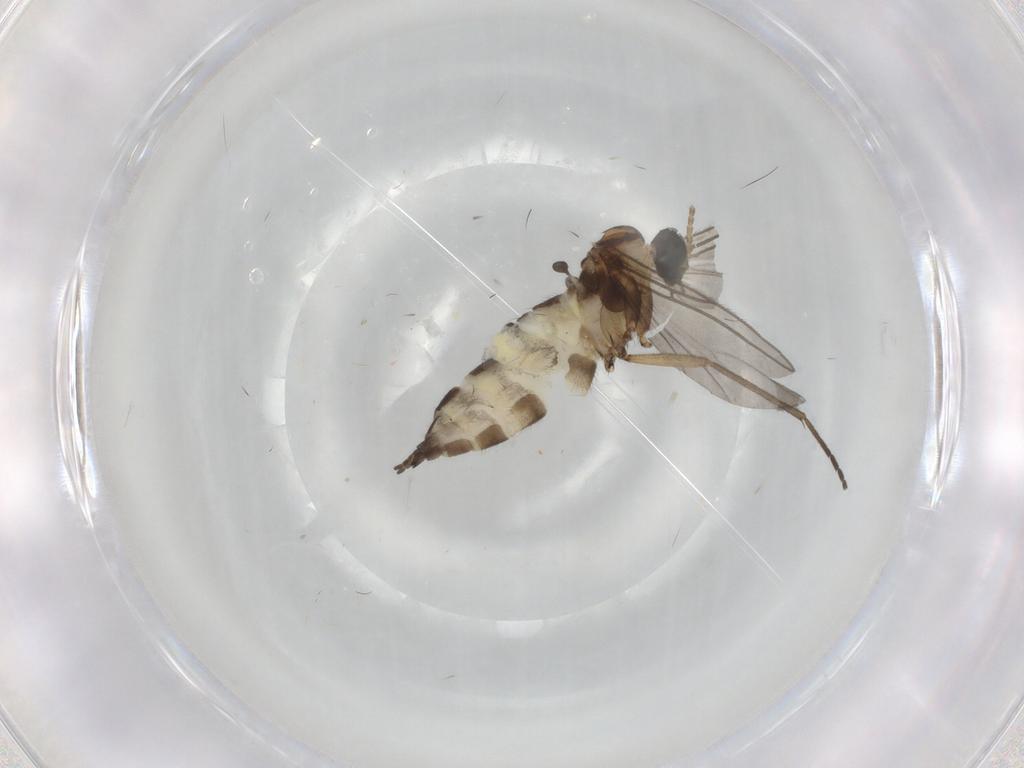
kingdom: Animalia
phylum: Arthropoda
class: Insecta
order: Diptera
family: Sciaridae
